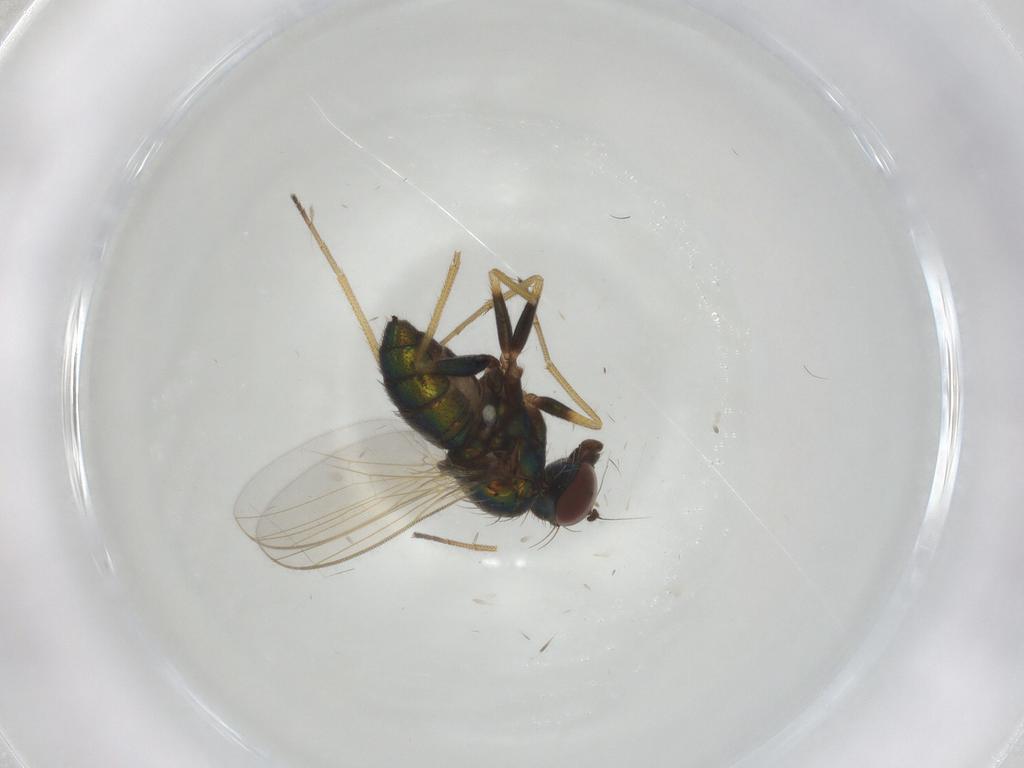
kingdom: Animalia
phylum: Arthropoda
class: Insecta
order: Diptera
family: Dolichopodidae
